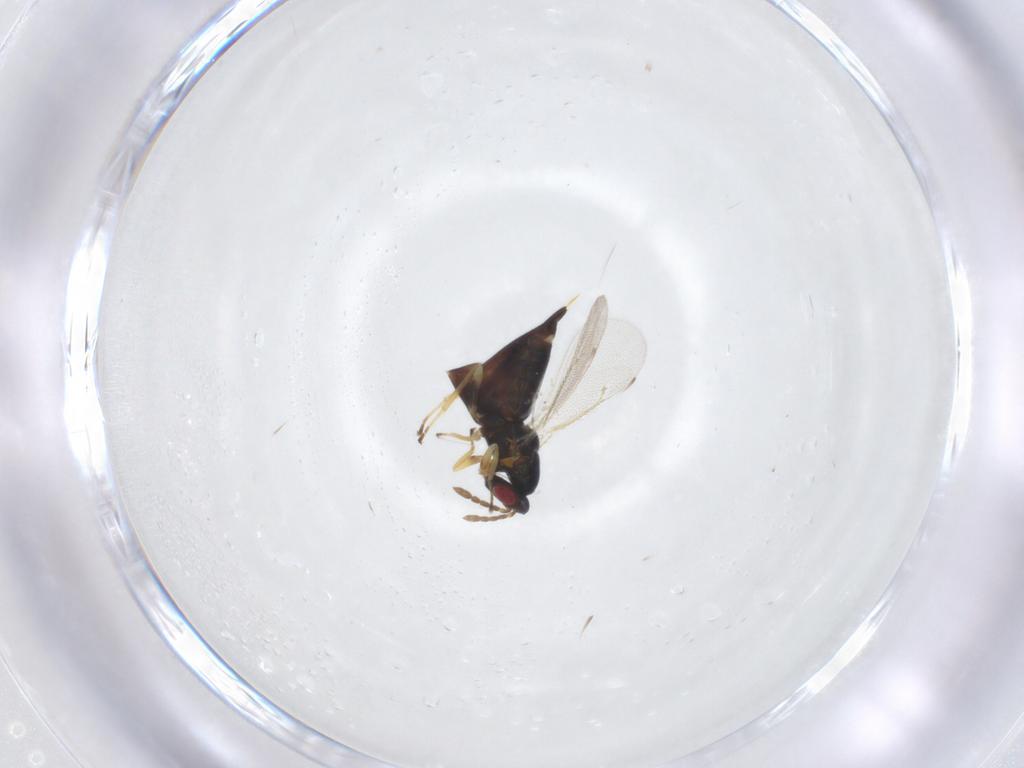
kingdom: Animalia
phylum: Arthropoda
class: Insecta
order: Hymenoptera
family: Eulophidae
